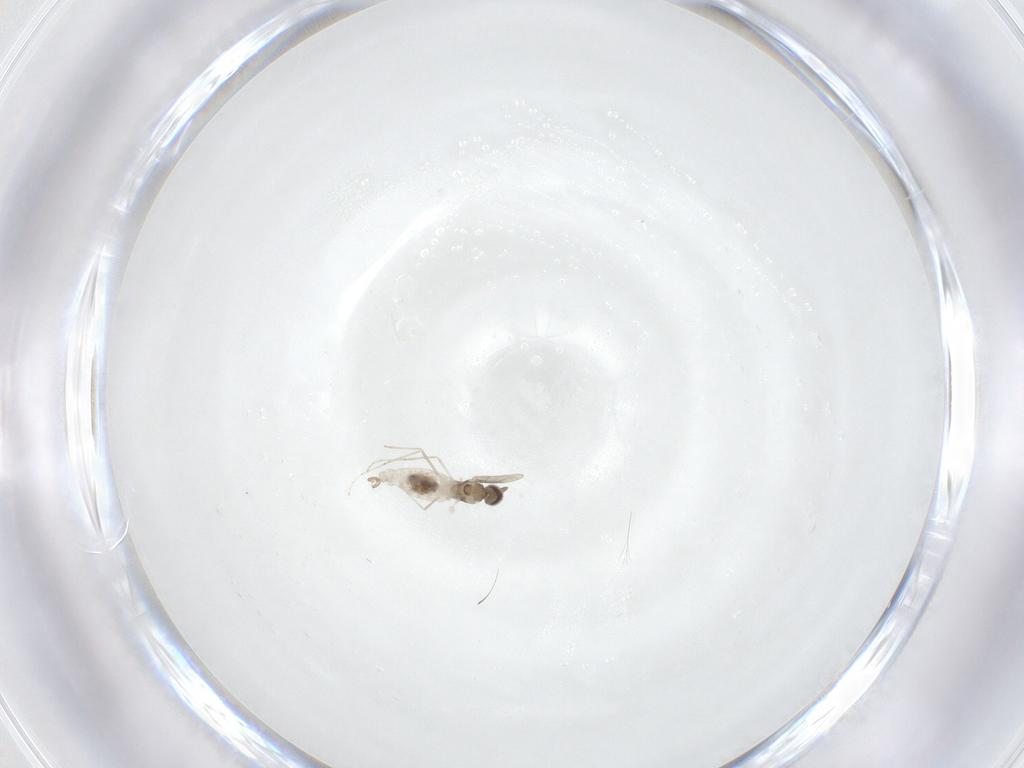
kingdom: Animalia
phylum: Arthropoda
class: Insecta
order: Diptera
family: Cecidomyiidae
